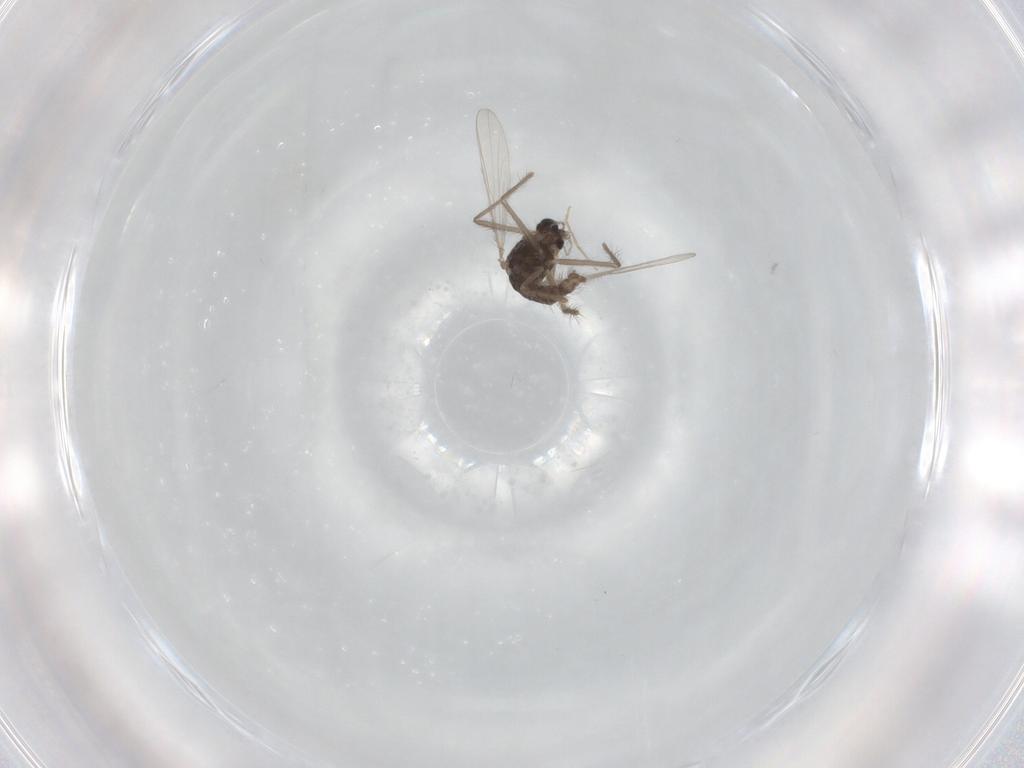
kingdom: Animalia
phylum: Arthropoda
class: Insecta
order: Diptera
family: Chironomidae
